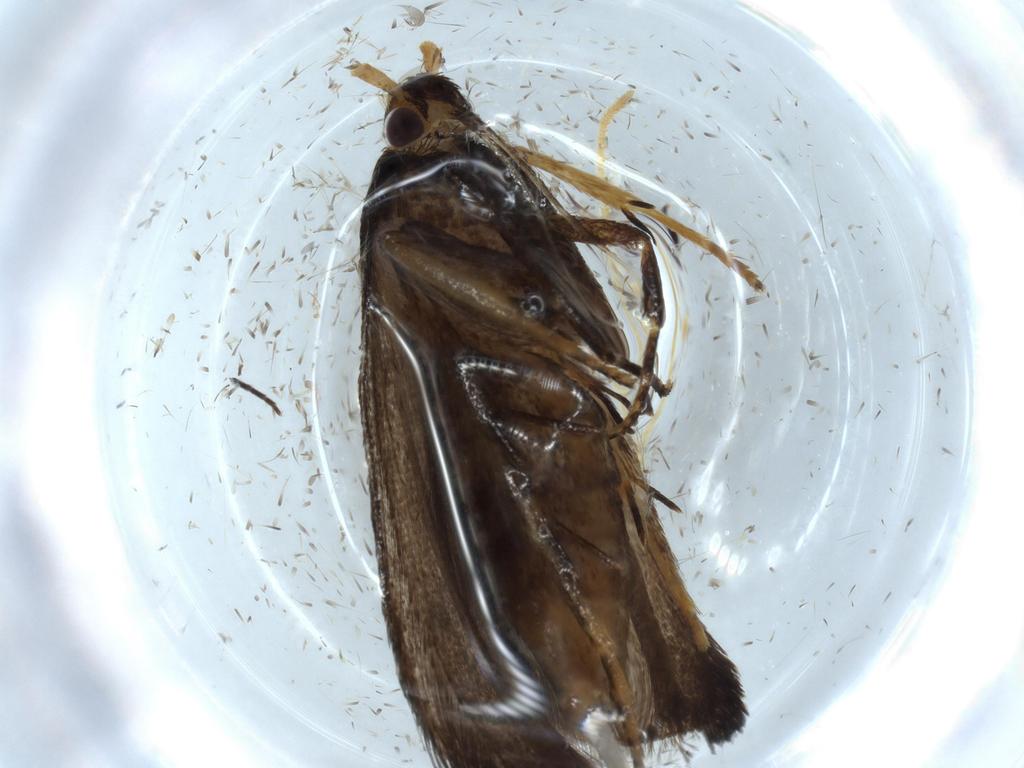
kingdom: Animalia
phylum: Arthropoda
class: Insecta
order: Lepidoptera
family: Lecithoceridae
